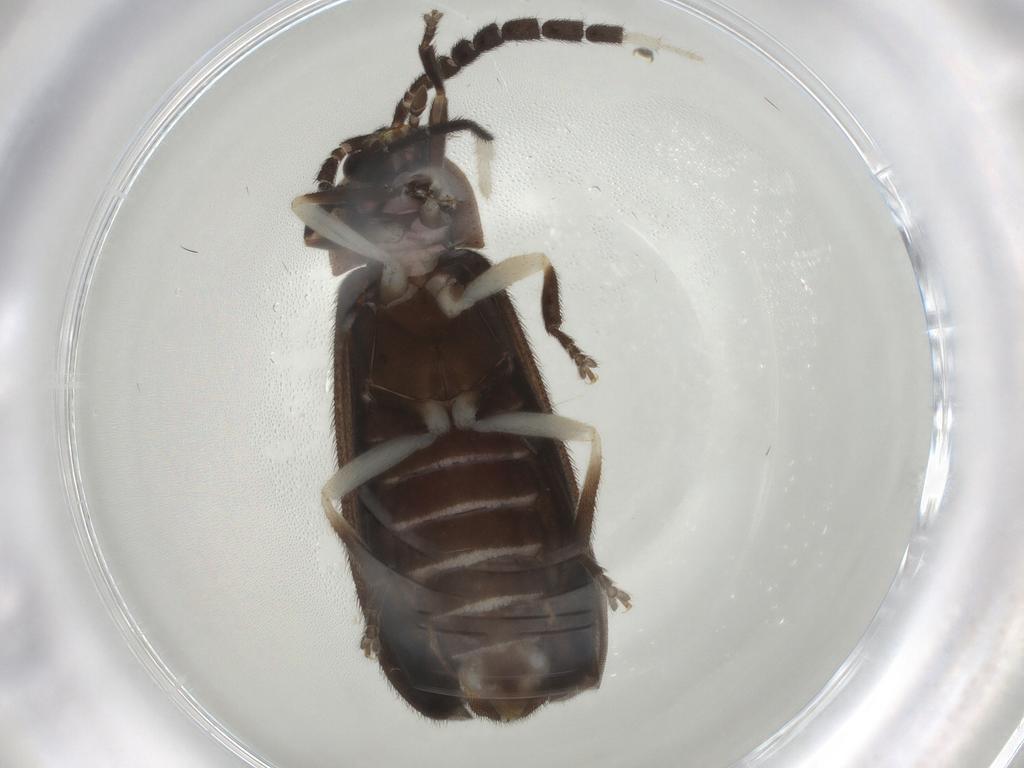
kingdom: Animalia
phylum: Arthropoda
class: Insecta
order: Coleoptera
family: Lampyridae
